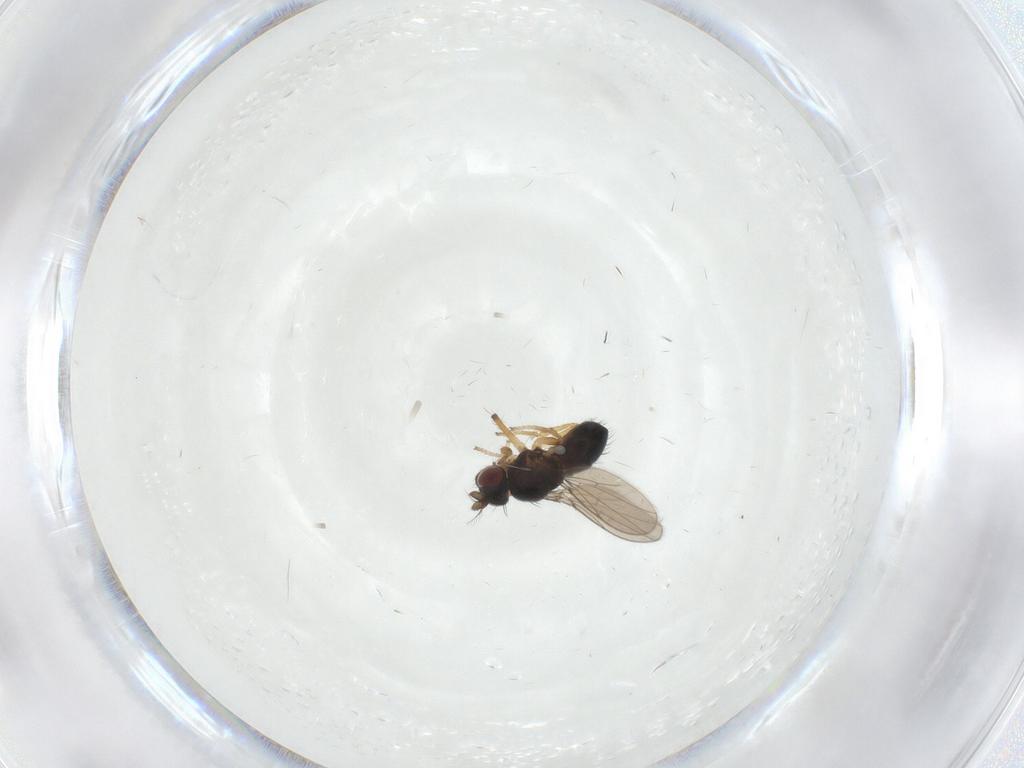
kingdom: Animalia
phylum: Arthropoda
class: Insecta
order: Diptera
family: Ephydridae
